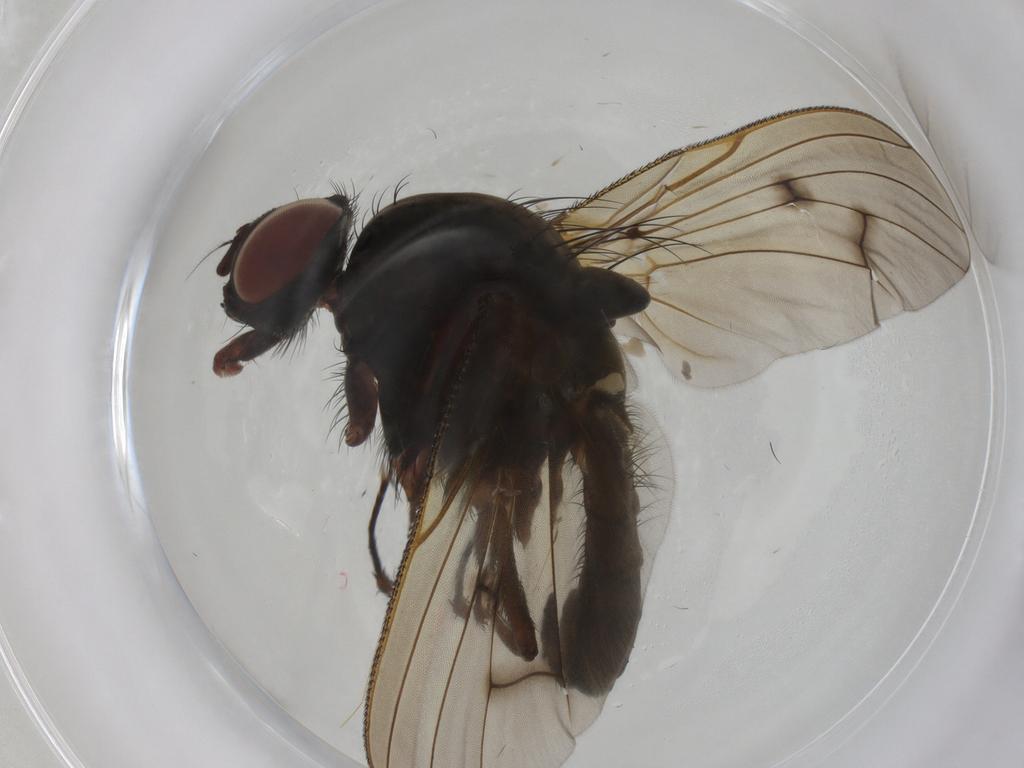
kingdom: Animalia
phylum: Arthropoda
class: Insecta
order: Diptera
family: Anthomyiidae
